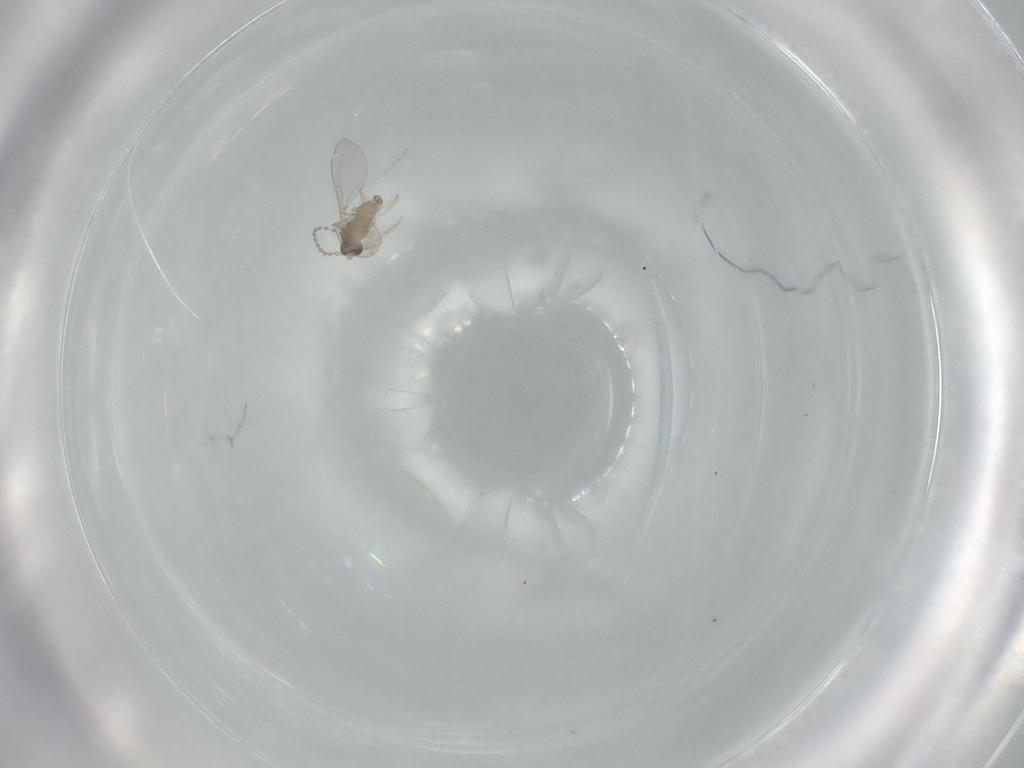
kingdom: Animalia
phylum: Arthropoda
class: Insecta
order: Diptera
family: Cecidomyiidae
